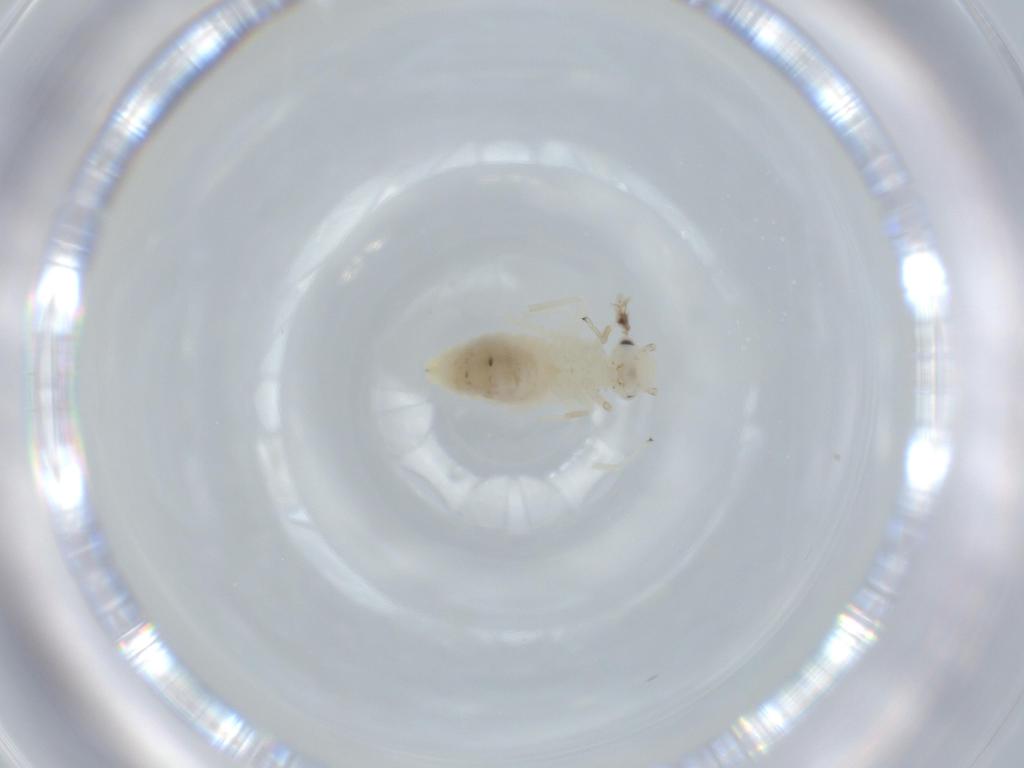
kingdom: Animalia
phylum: Arthropoda
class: Insecta
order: Psocodea
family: Caeciliusidae
